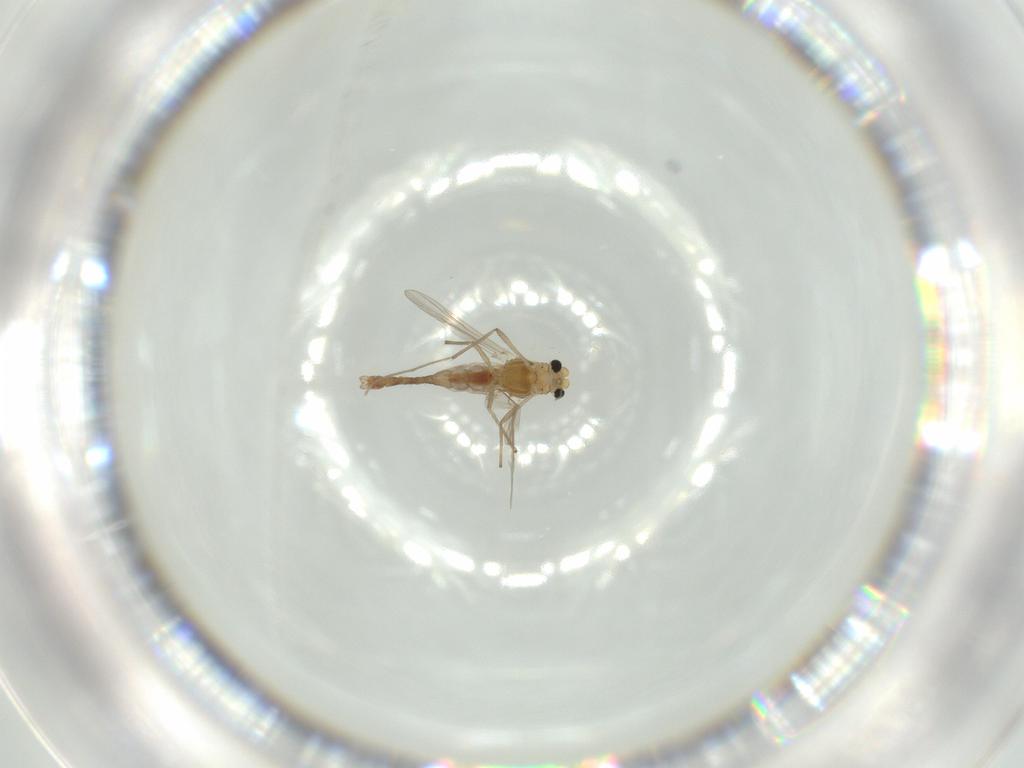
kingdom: Animalia
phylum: Arthropoda
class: Insecta
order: Diptera
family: Chironomidae
